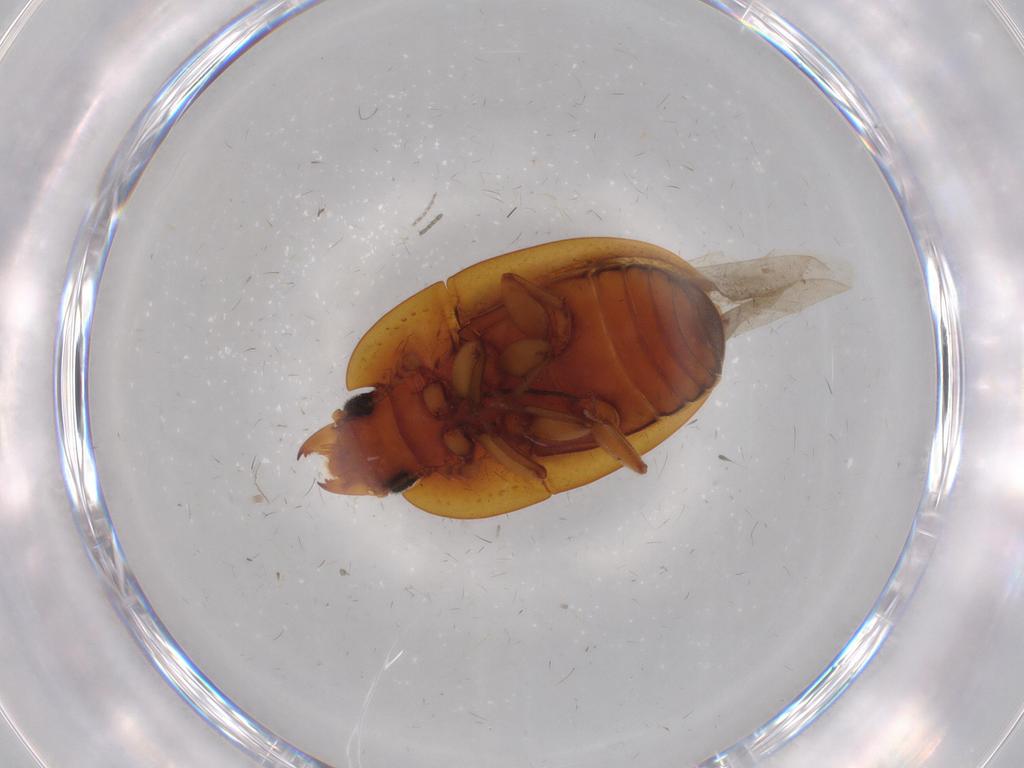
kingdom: Animalia
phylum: Arthropoda
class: Insecta
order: Coleoptera
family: Nitidulidae
